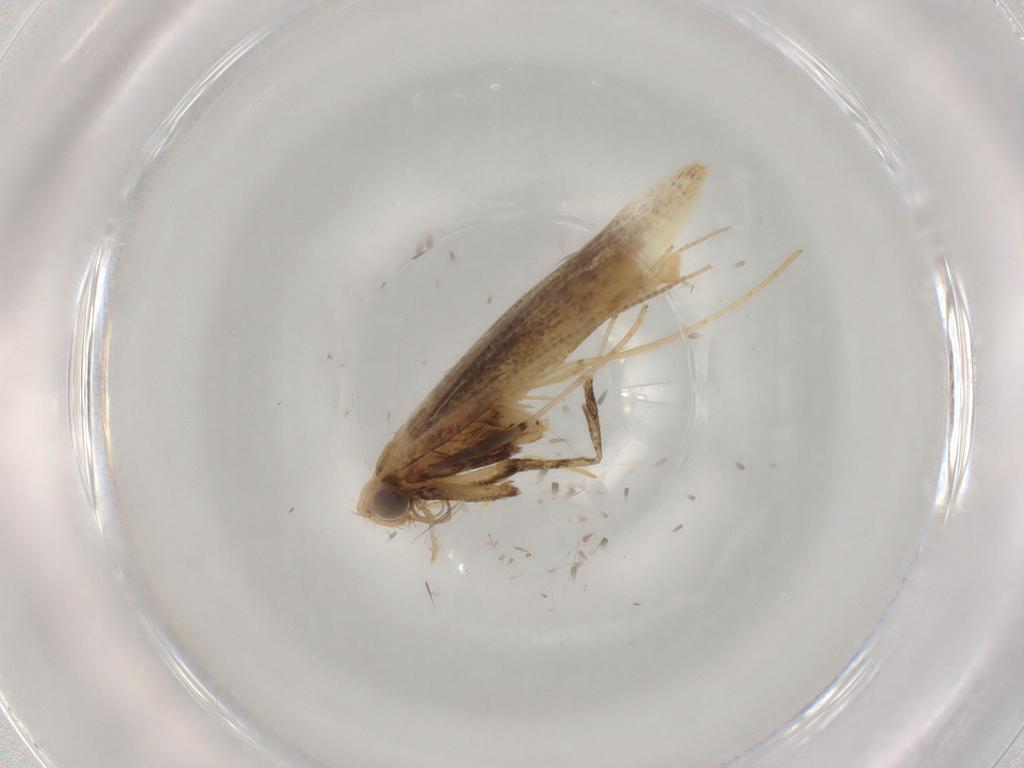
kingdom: Animalia
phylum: Arthropoda
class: Insecta
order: Lepidoptera
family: Gracillariidae
